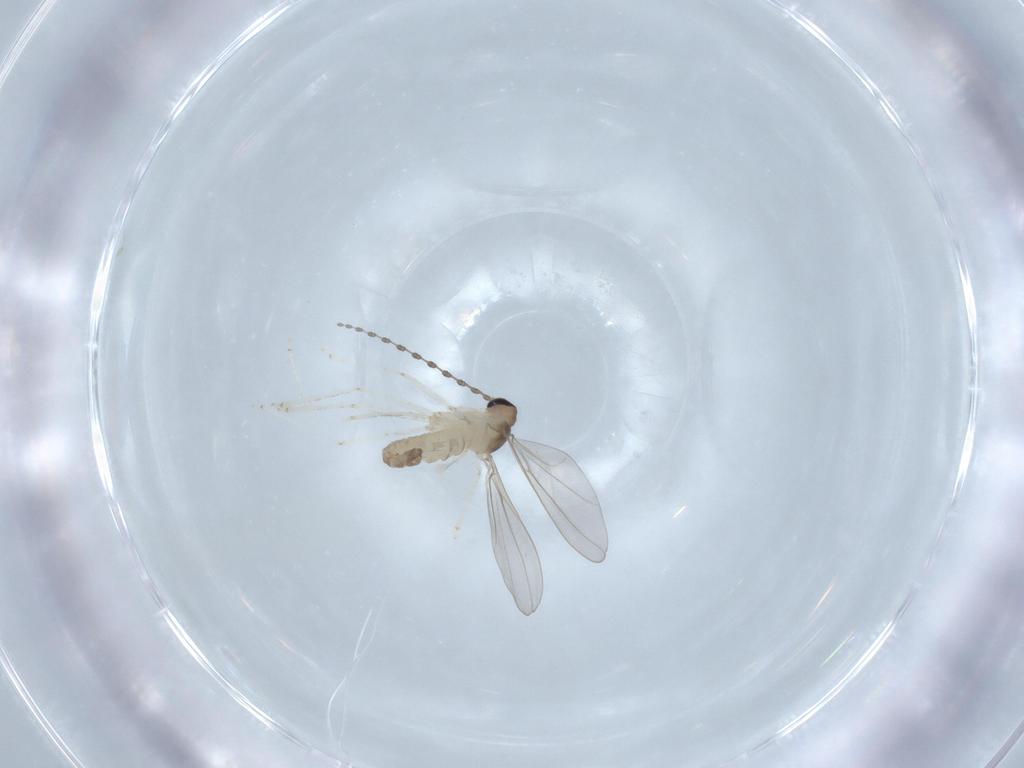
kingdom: Animalia
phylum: Arthropoda
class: Insecta
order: Diptera
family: Cecidomyiidae
